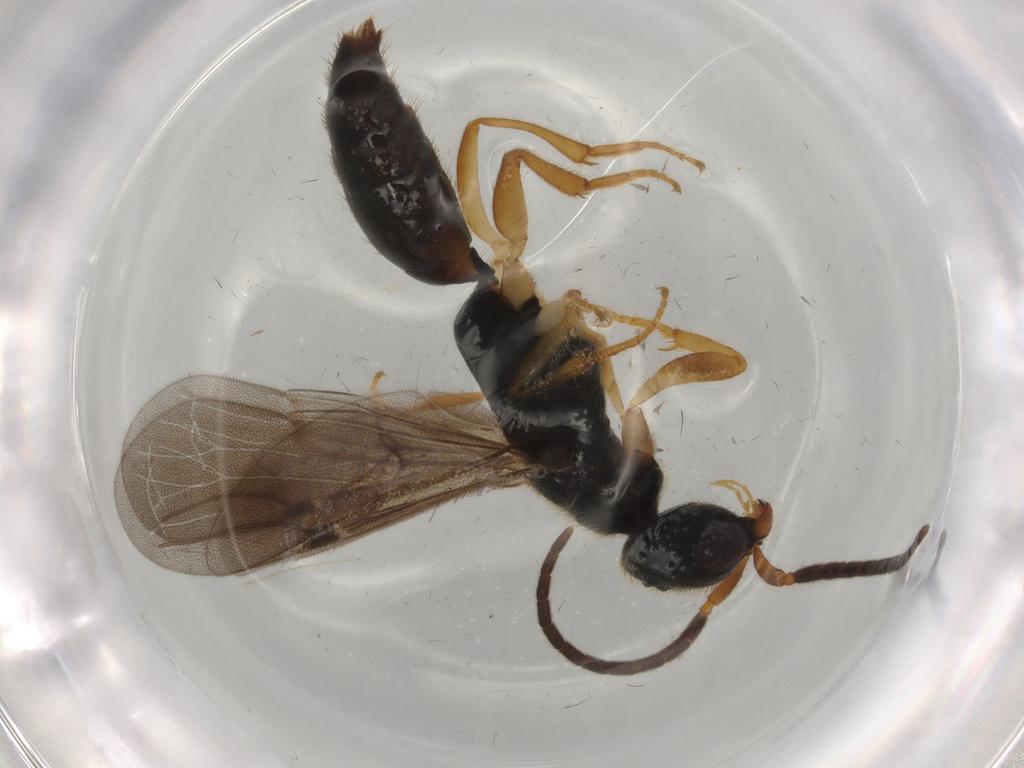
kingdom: Animalia
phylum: Arthropoda
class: Insecta
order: Hymenoptera
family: Bethylidae
